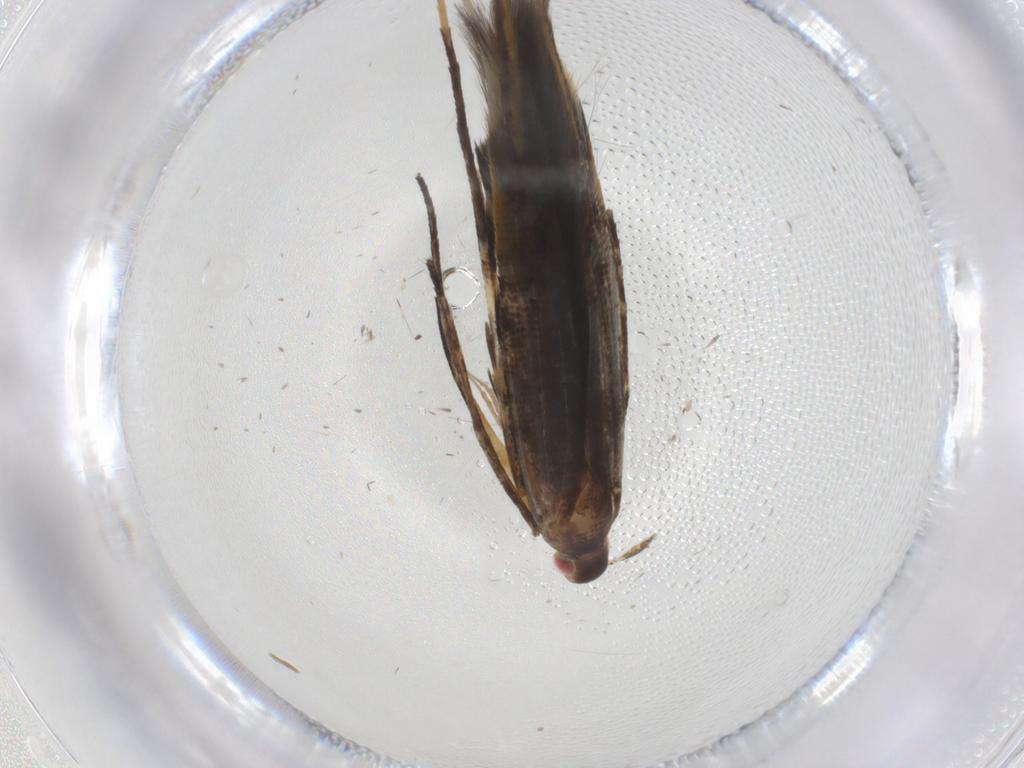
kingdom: Animalia
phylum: Arthropoda
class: Insecta
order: Lepidoptera
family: Cosmopterigidae
